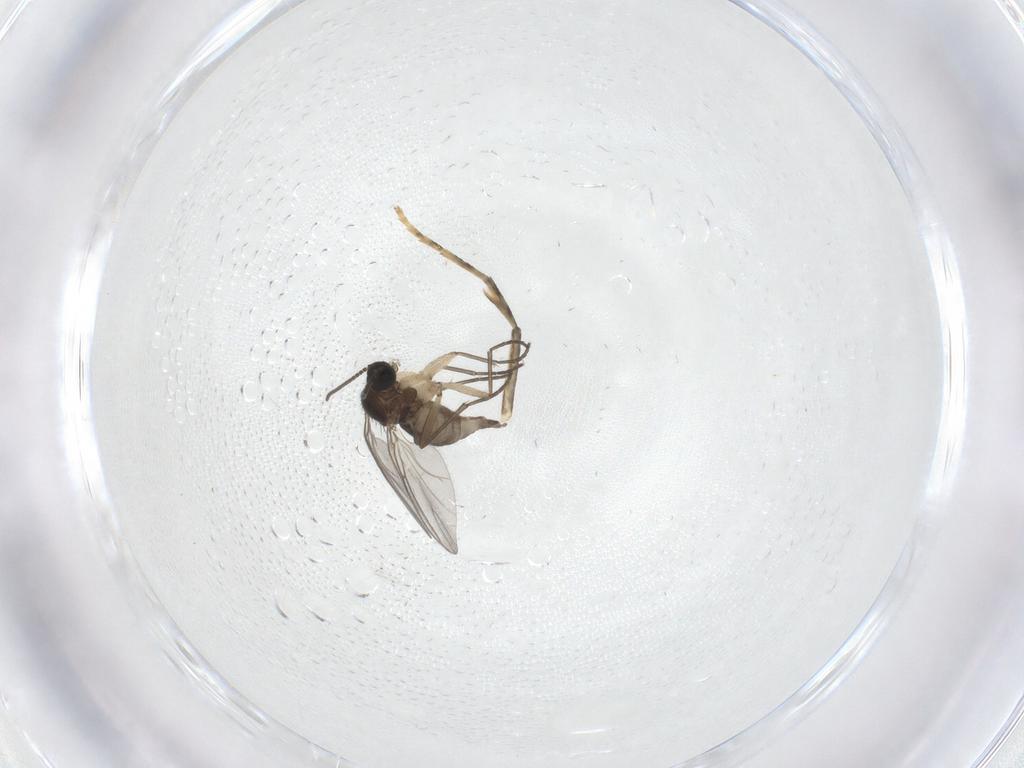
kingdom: Animalia
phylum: Arthropoda
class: Insecta
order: Diptera
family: Sciaridae
